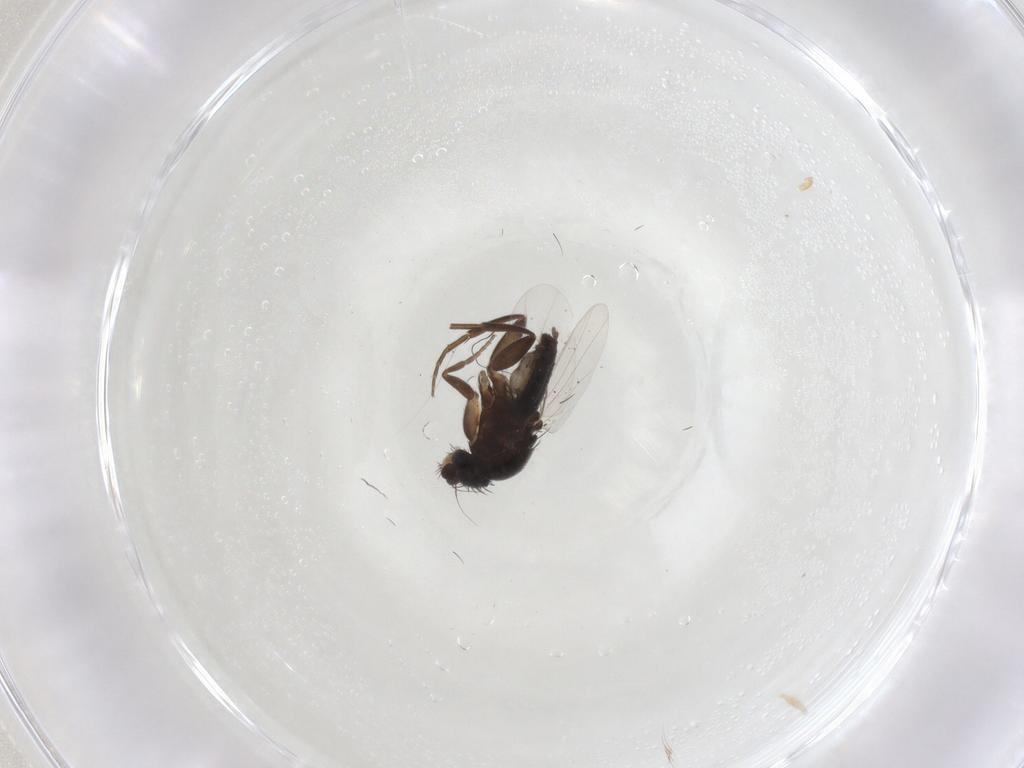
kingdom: Animalia
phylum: Arthropoda
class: Insecta
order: Diptera
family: Phoridae
